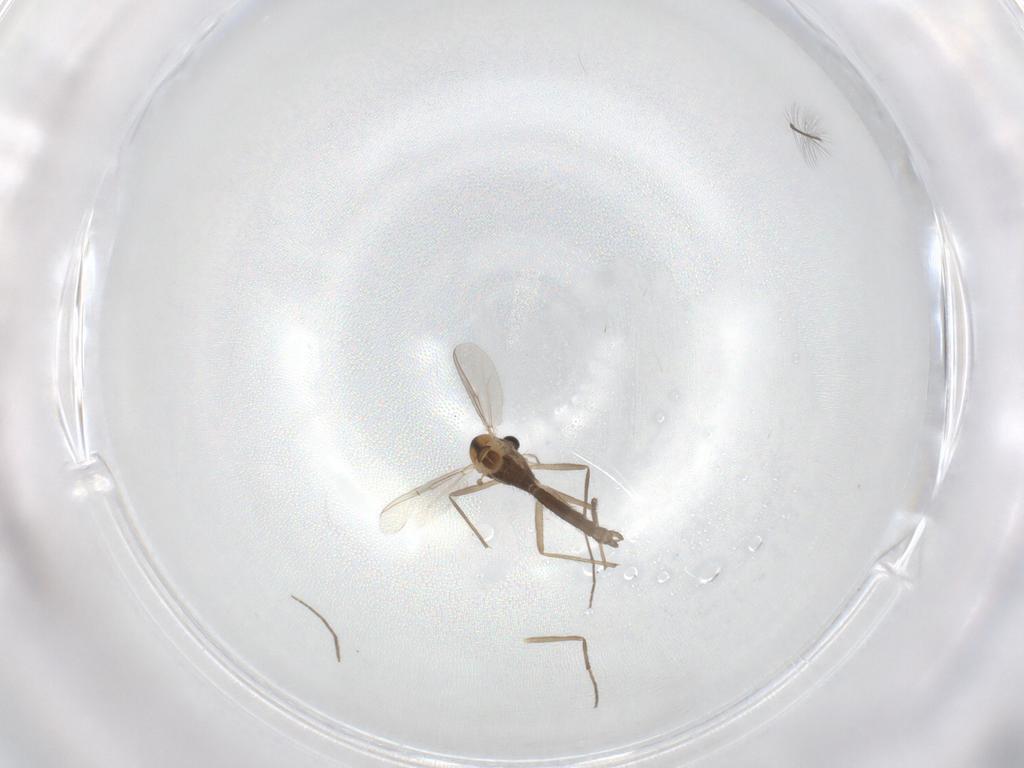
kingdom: Animalia
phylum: Arthropoda
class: Insecta
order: Diptera
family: Chironomidae
